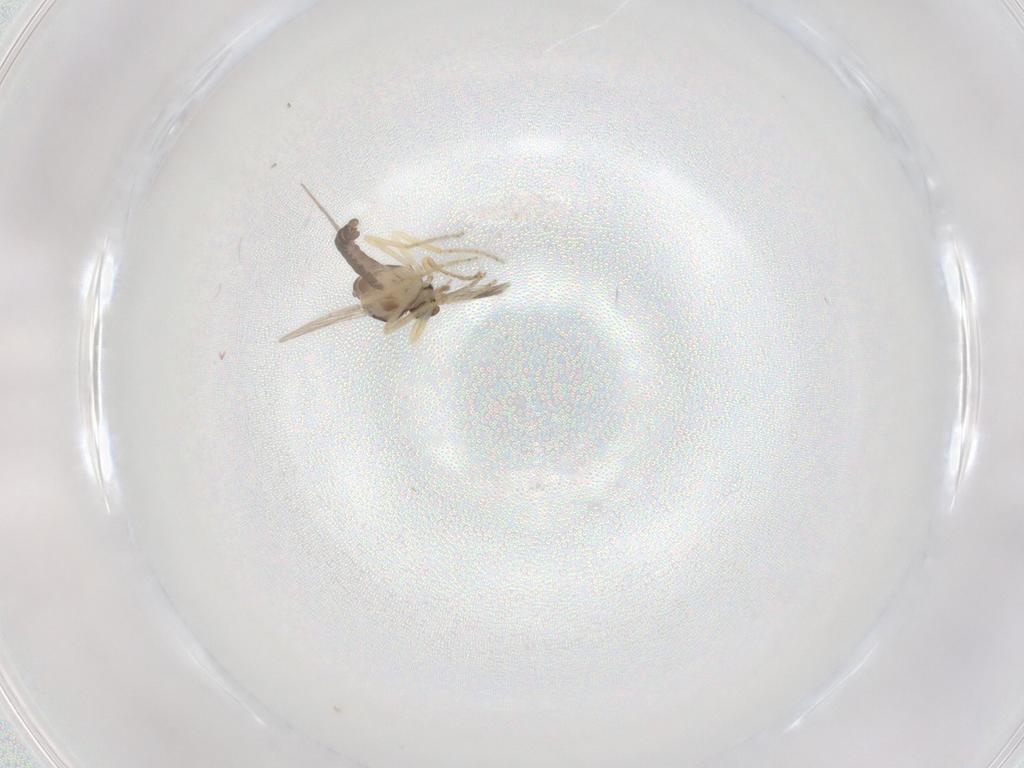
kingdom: Animalia
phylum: Arthropoda
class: Insecta
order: Diptera
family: Ceratopogonidae
